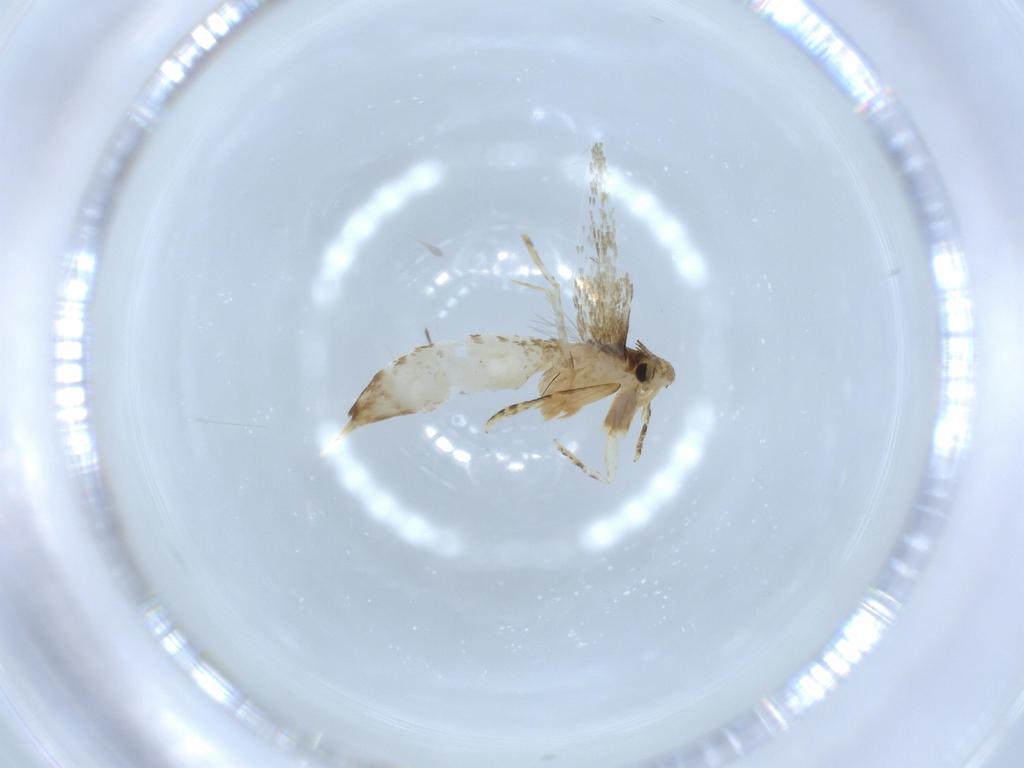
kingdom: Animalia
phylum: Arthropoda
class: Insecta
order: Lepidoptera
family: Tineidae
